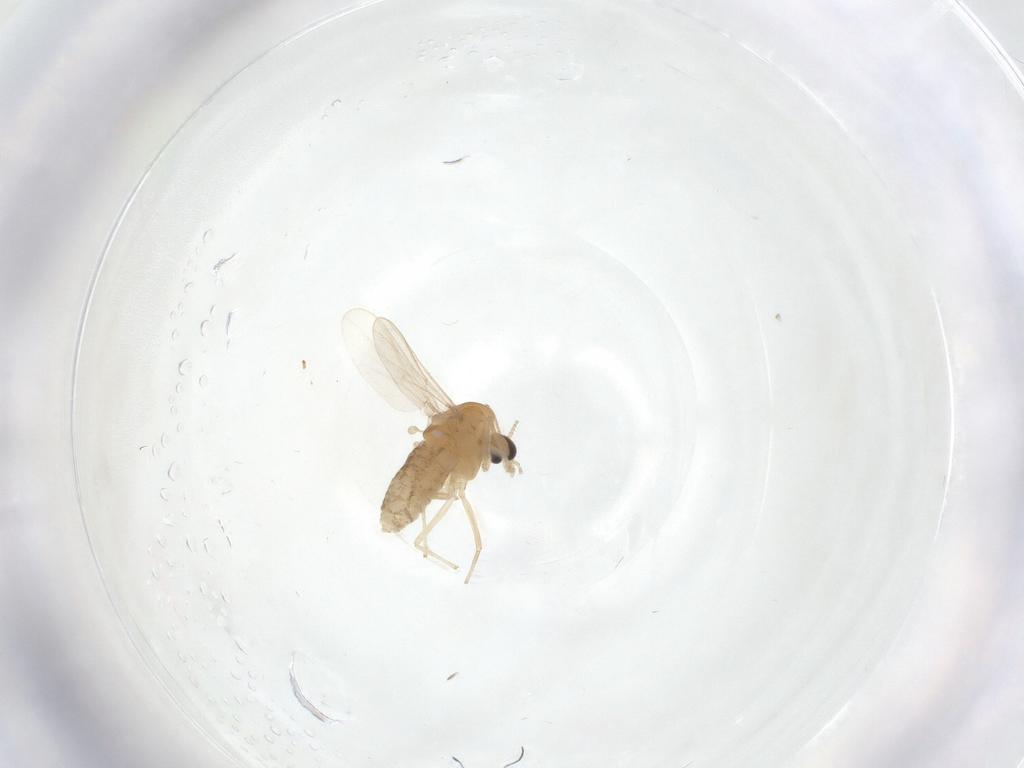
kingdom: Animalia
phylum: Arthropoda
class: Insecta
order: Diptera
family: Chironomidae
